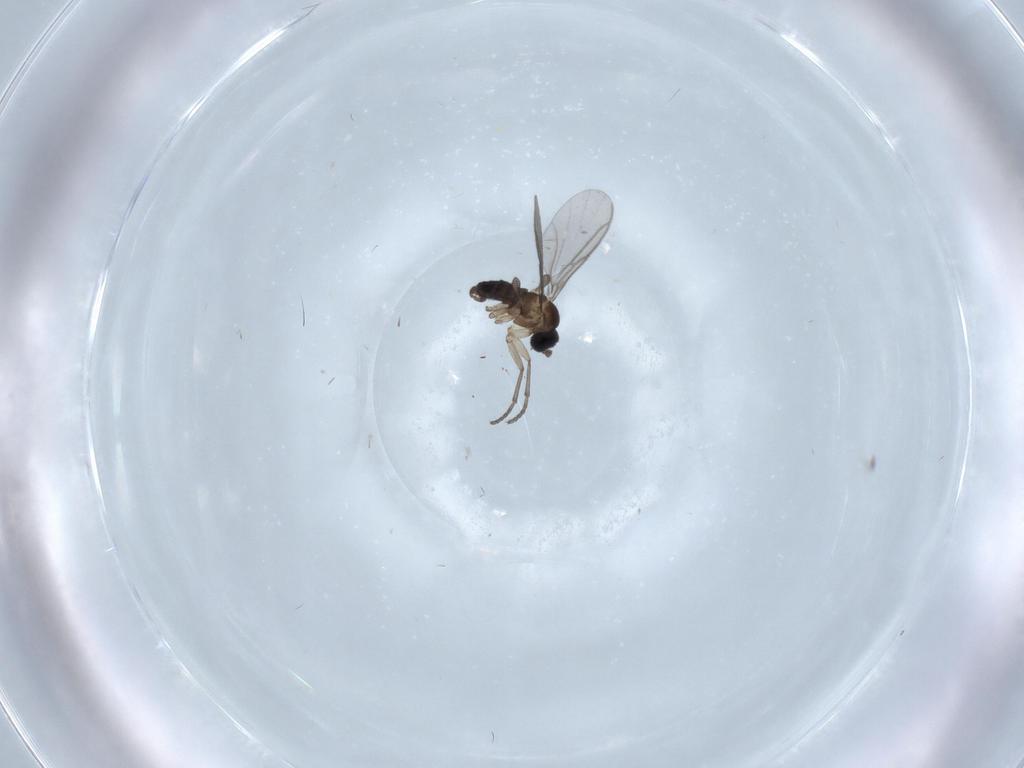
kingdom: Animalia
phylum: Arthropoda
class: Insecta
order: Diptera
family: Sciaridae
